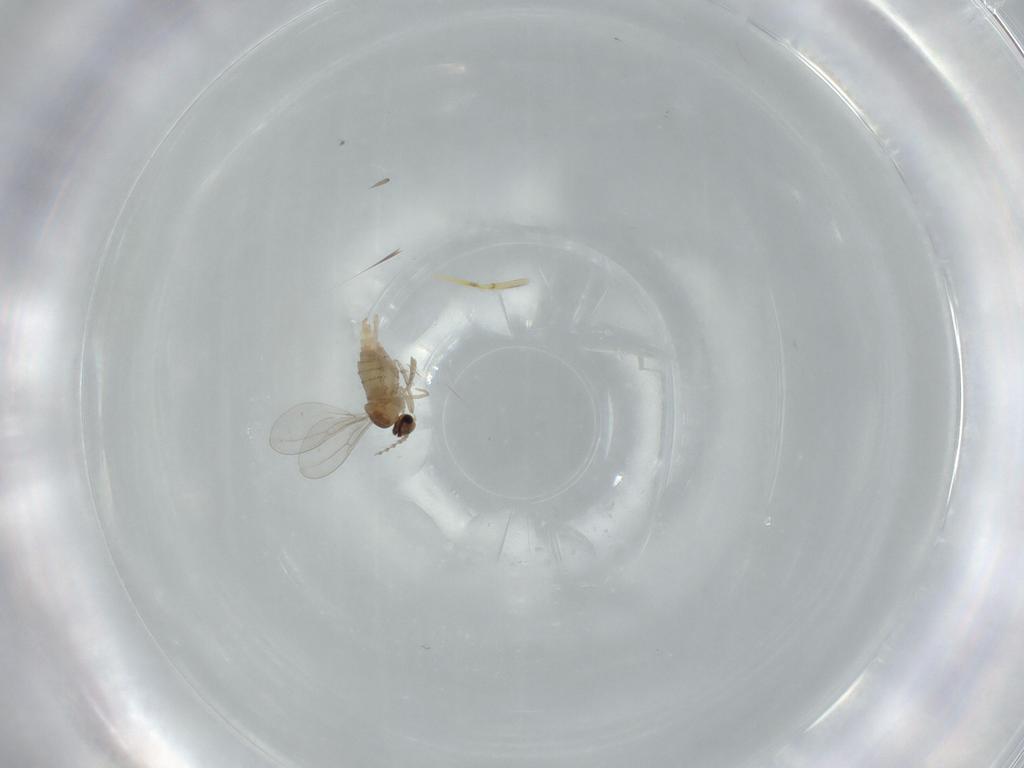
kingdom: Animalia
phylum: Arthropoda
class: Insecta
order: Diptera
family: Cecidomyiidae
